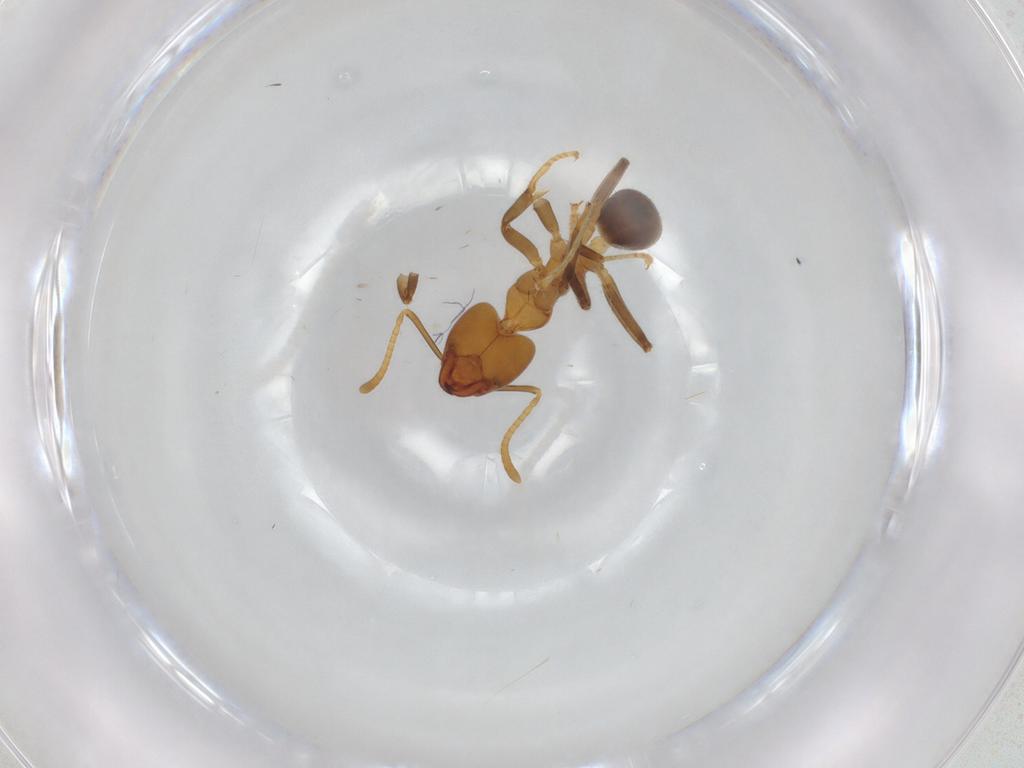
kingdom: Animalia
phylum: Arthropoda
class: Insecta
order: Hymenoptera
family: Formicidae
